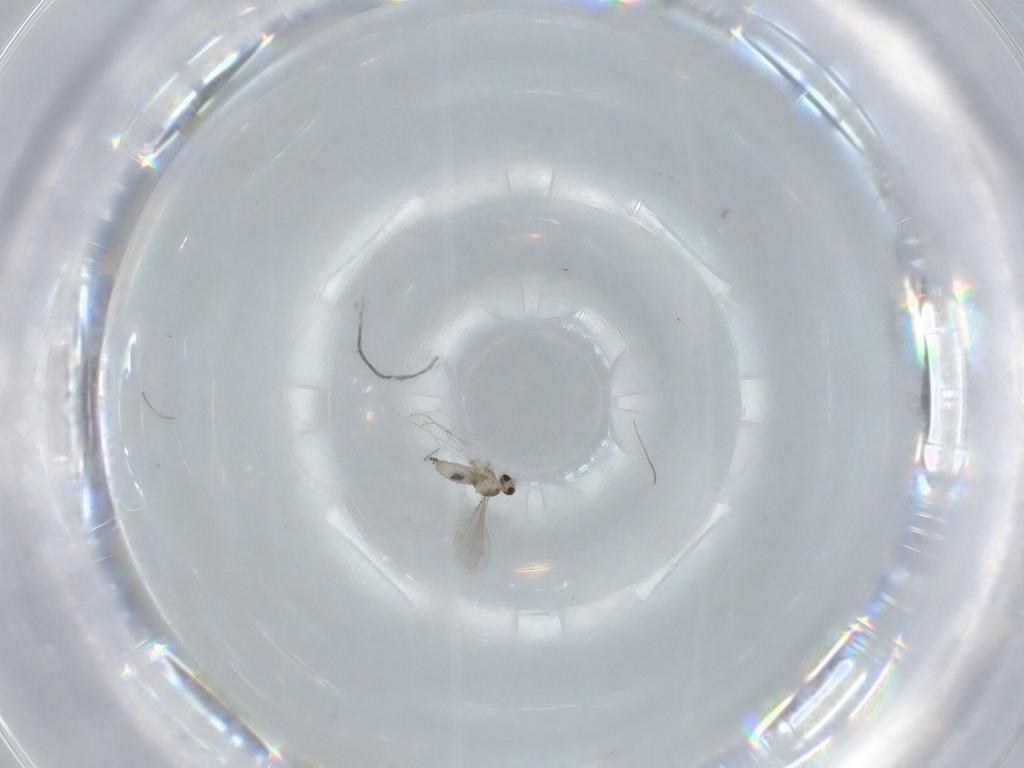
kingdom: Animalia
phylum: Arthropoda
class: Insecta
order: Diptera
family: Cecidomyiidae
